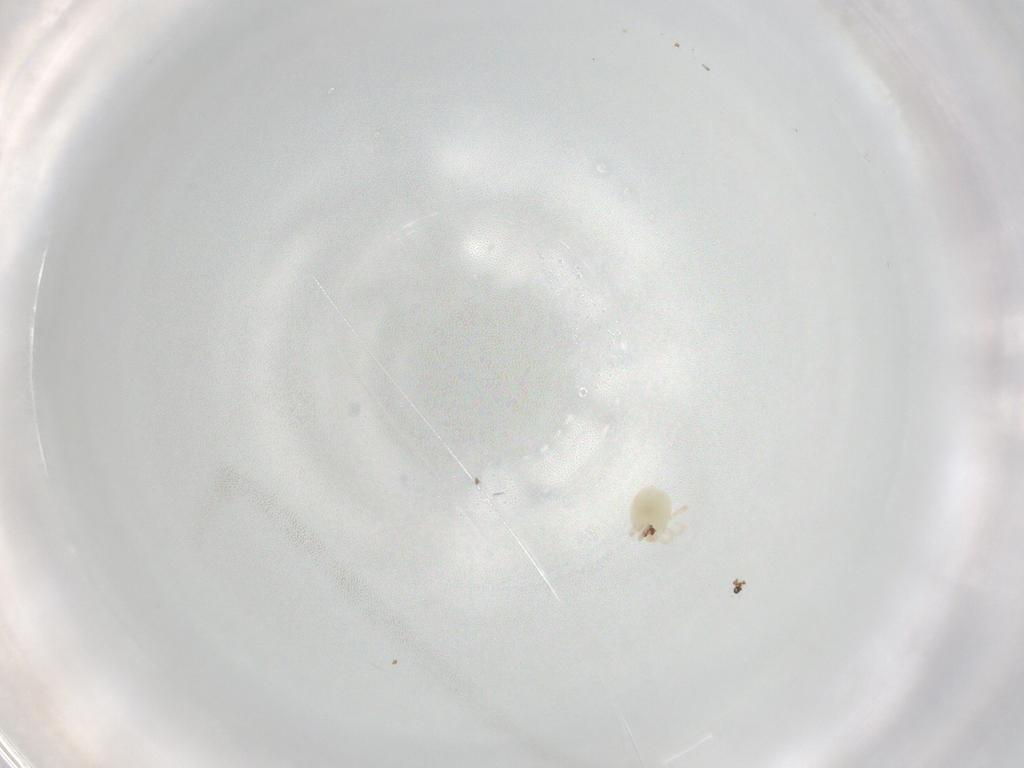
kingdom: Animalia
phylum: Arthropoda
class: Arachnida
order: Trombidiformes
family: Sperchontidae
